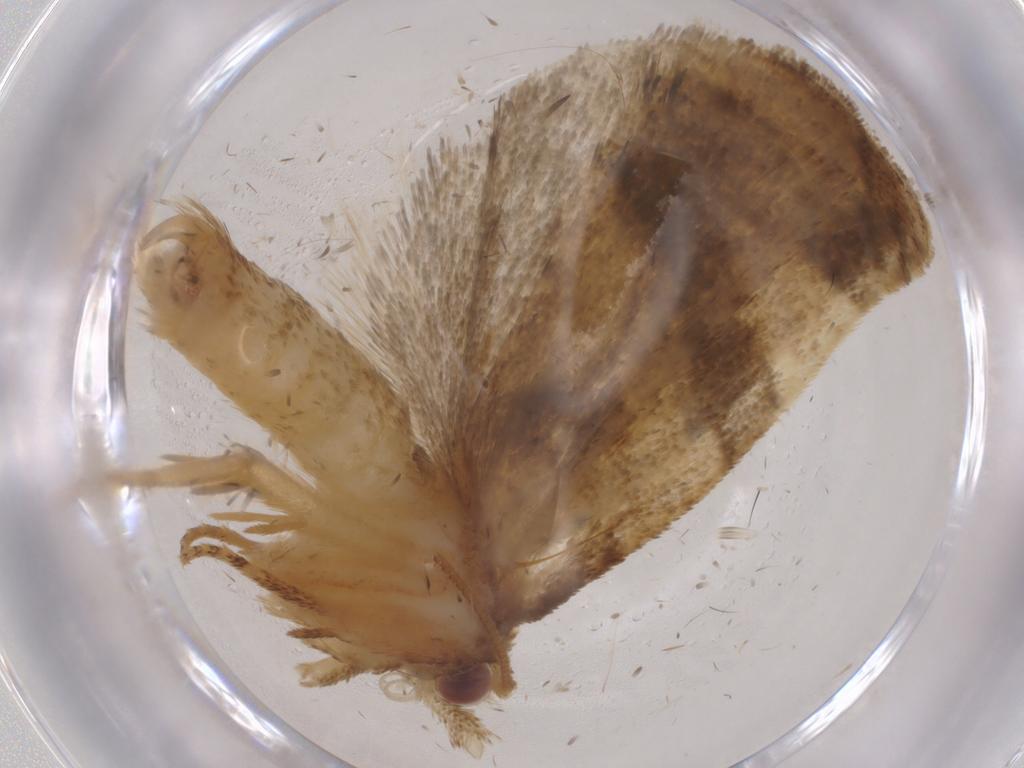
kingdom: Animalia
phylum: Arthropoda
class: Insecta
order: Lepidoptera
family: Tortricidae
